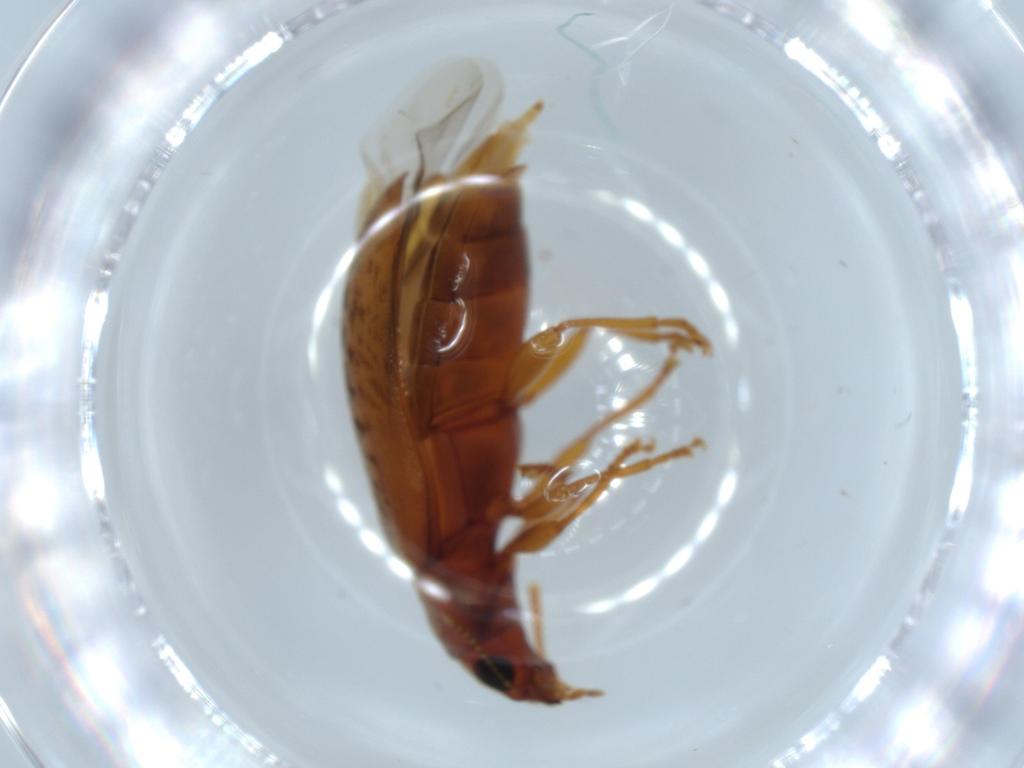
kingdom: Animalia
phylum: Arthropoda
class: Insecta
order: Coleoptera
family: Mycteridae
